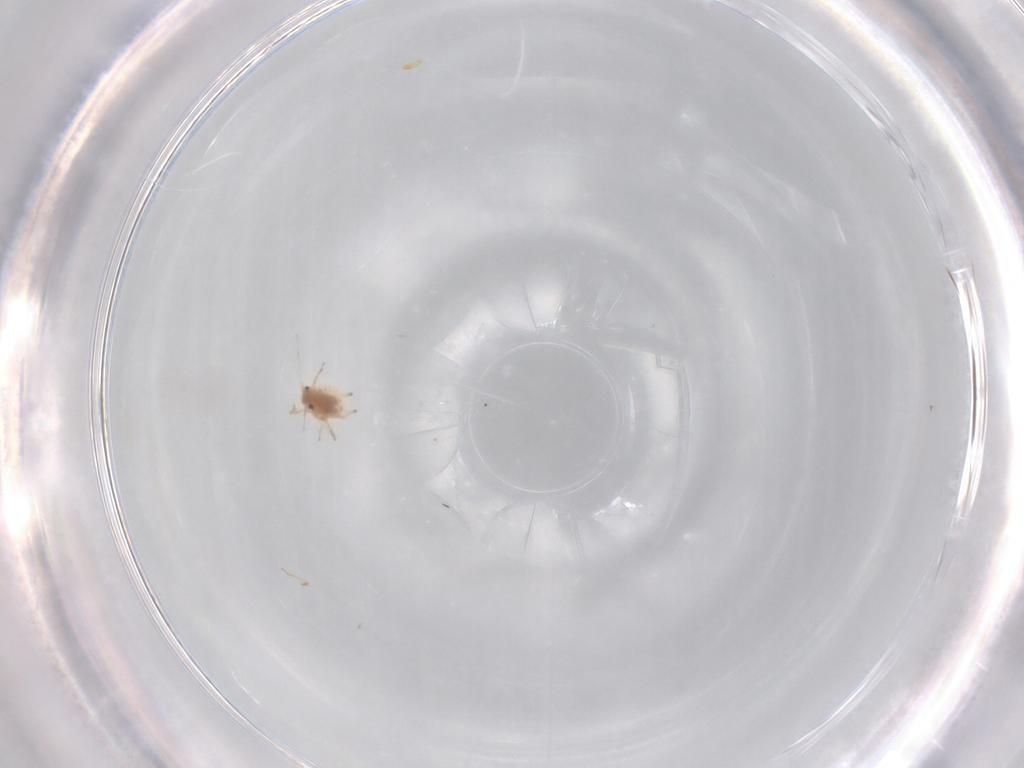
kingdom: Animalia
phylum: Arthropoda
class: Insecta
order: Hemiptera
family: Aphididae
